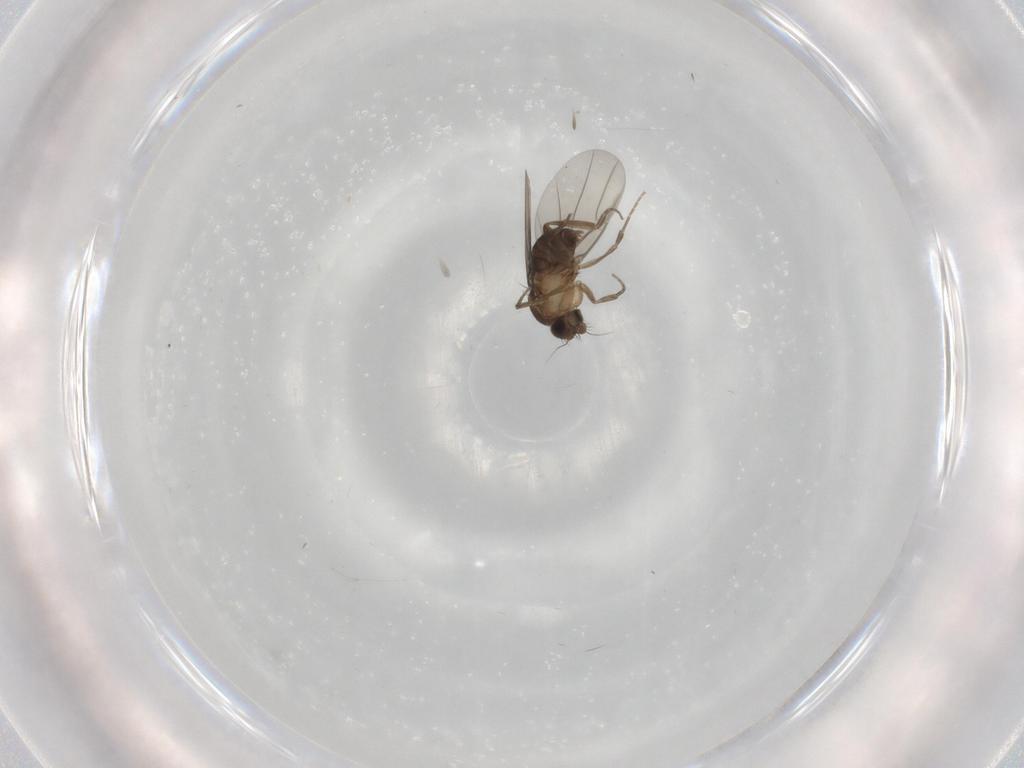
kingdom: Animalia
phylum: Arthropoda
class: Insecta
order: Diptera
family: Phoridae
